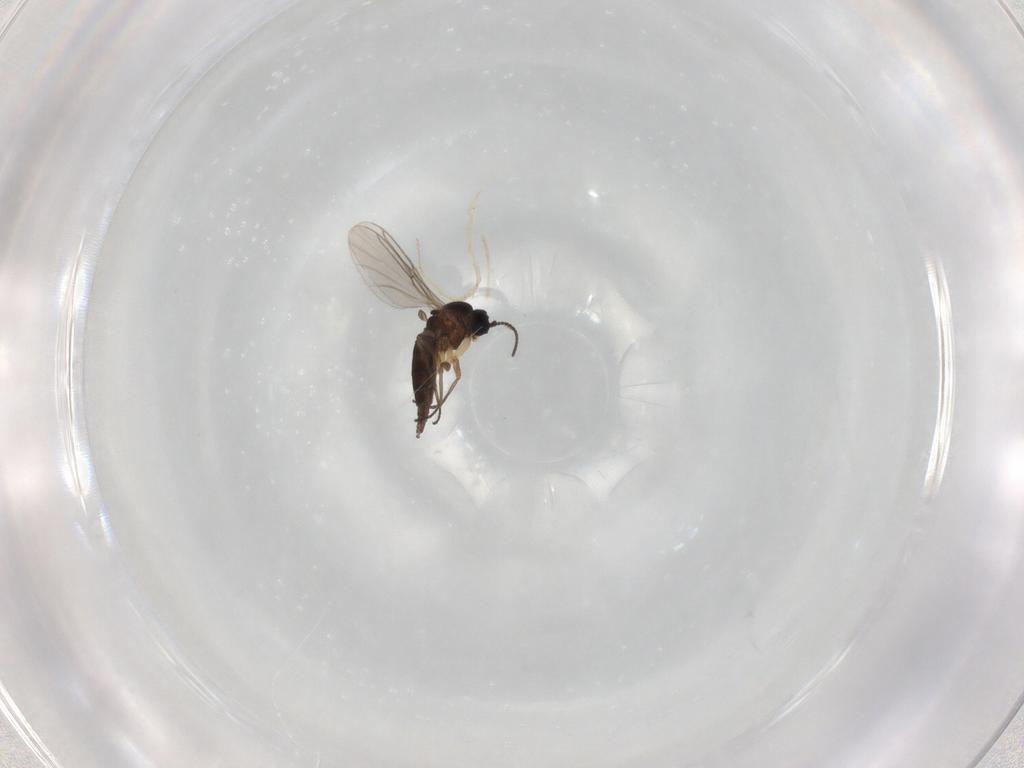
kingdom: Animalia
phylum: Arthropoda
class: Insecta
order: Diptera
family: Sciaridae
